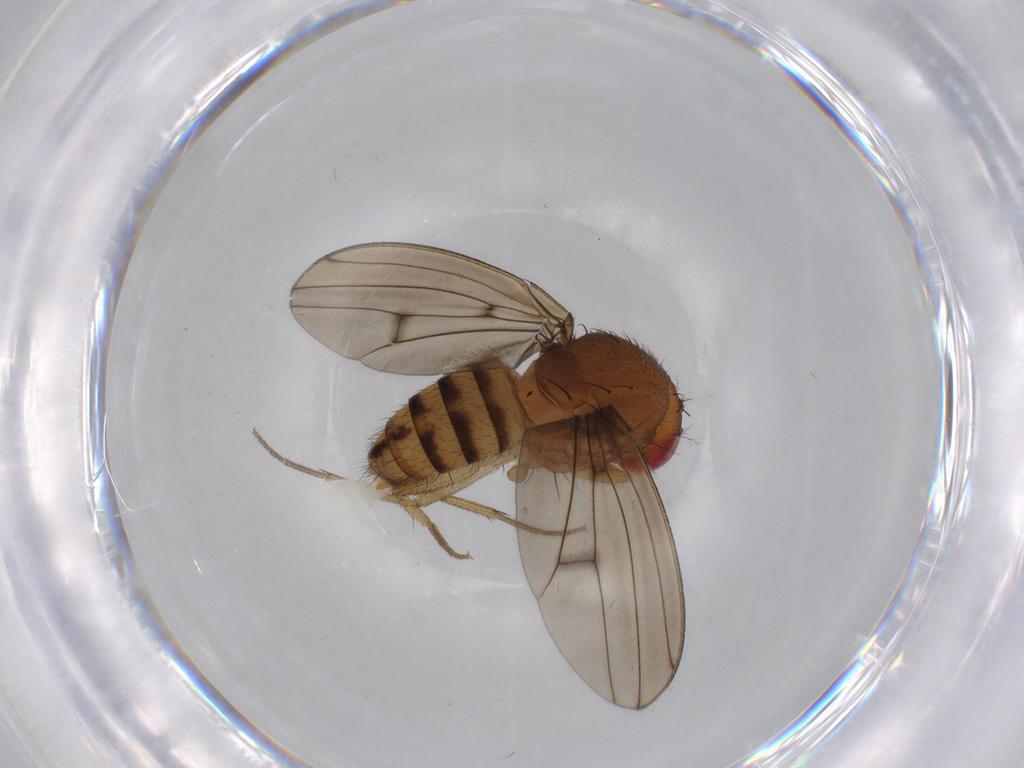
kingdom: Animalia
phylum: Arthropoda
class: Insecta
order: Diptera
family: Drosophilidae
